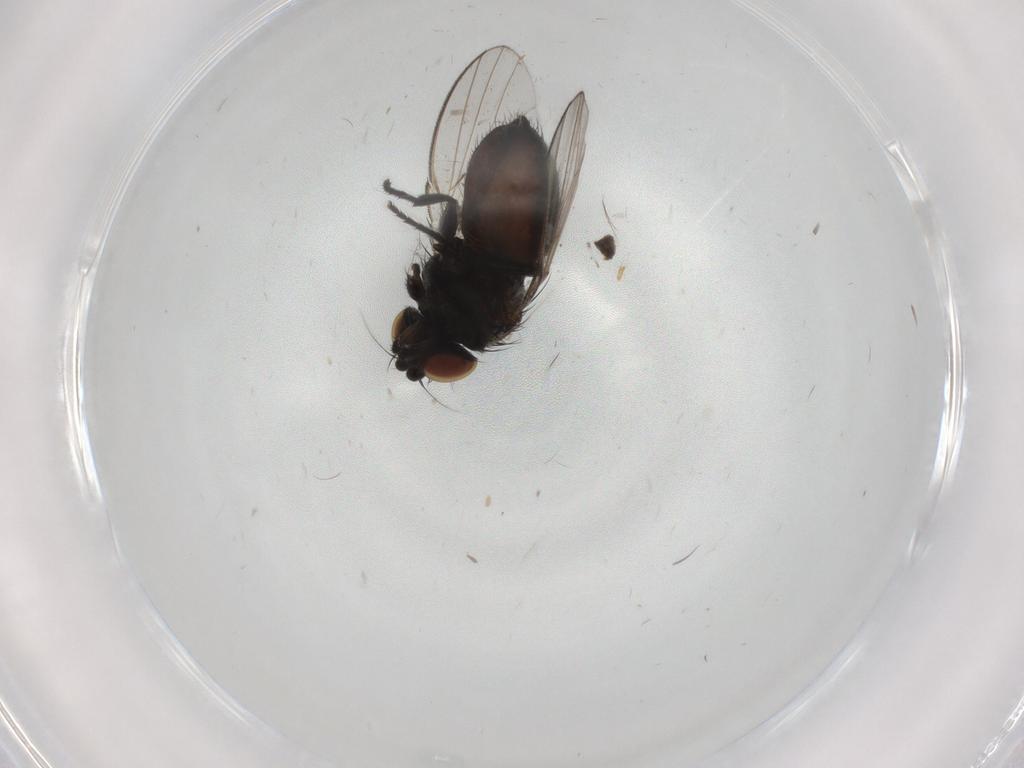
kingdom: Animalia
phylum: Arthropoda
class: Insecta
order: Diptera
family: Milichiidae
